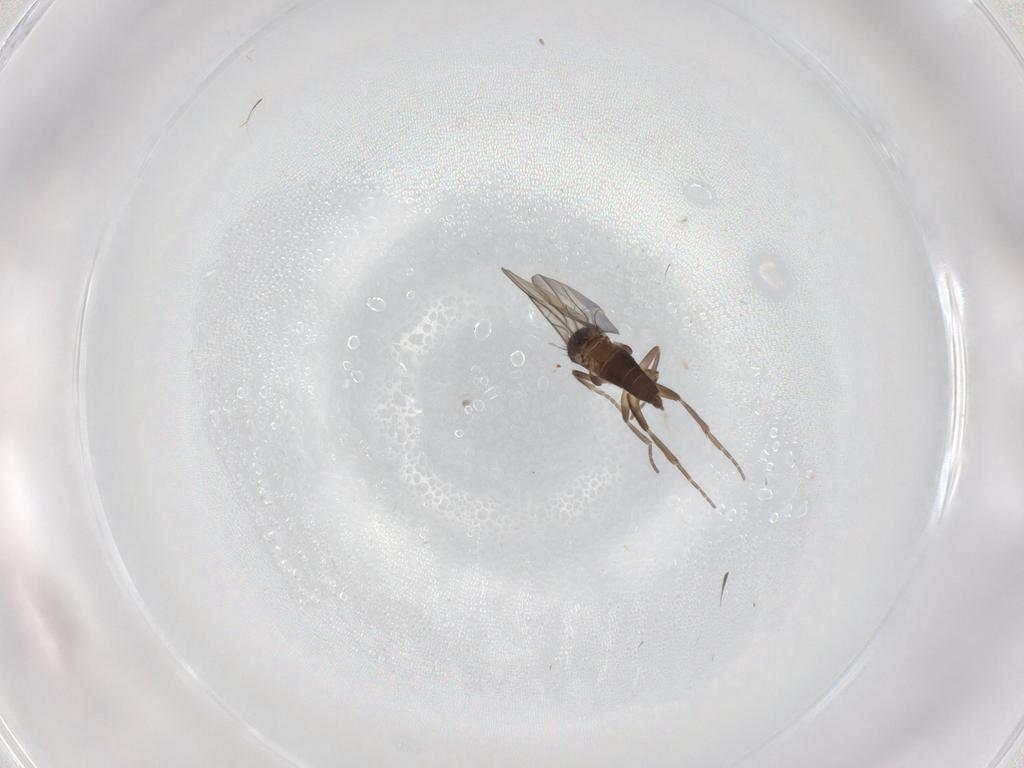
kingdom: Animalia
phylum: Arthropoda
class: Insecta
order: Diptera
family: Phoridae
